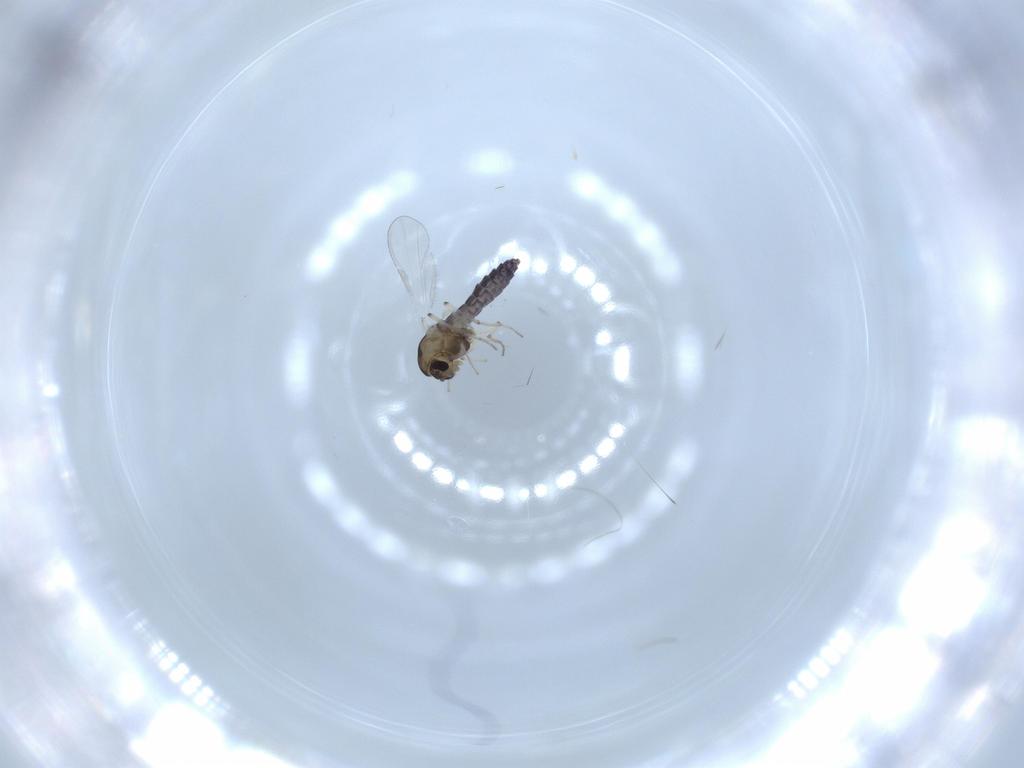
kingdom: Animalia
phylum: Arthropoda
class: Insecta
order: Diptera
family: Chironomidae
